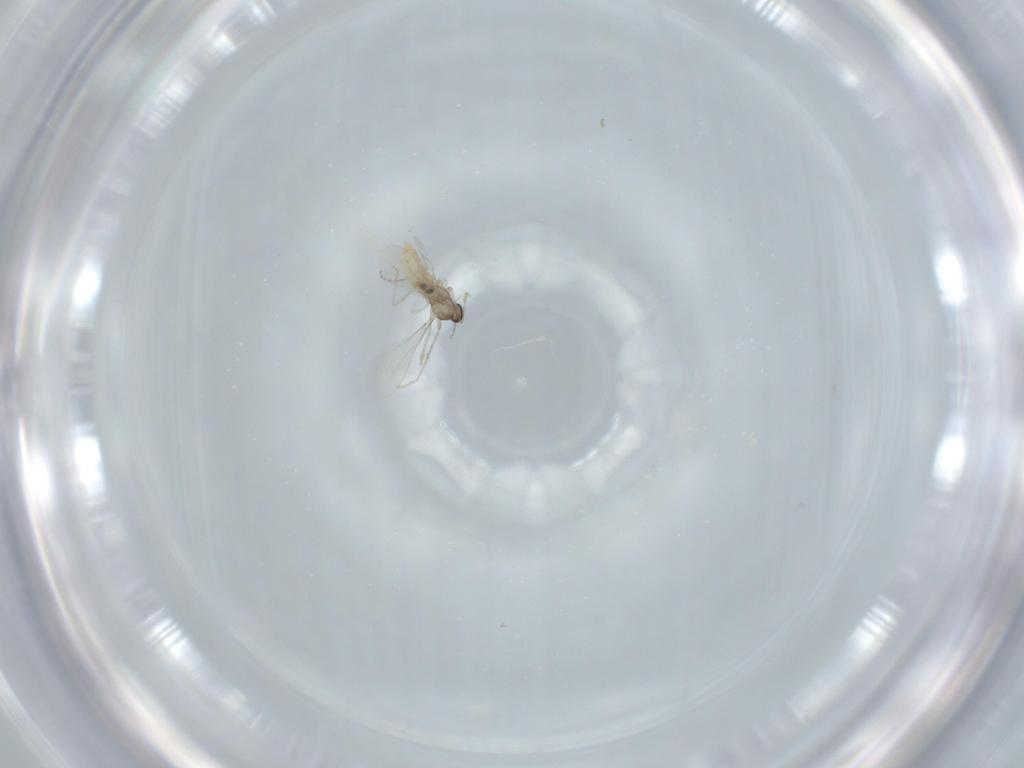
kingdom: Animalia
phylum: Arthropoda
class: Insecta
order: Diptera
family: Cecidomyiidae
